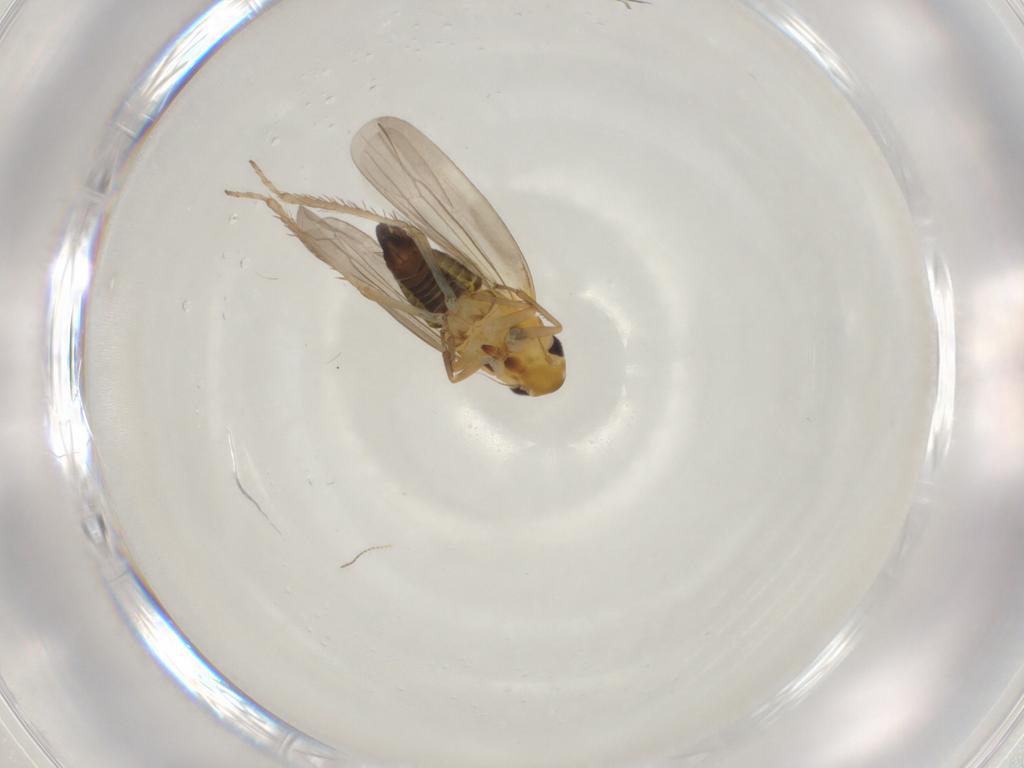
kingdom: Animalia
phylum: Arthropoda
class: Insecta
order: Hemiptera
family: Cicadellidae
